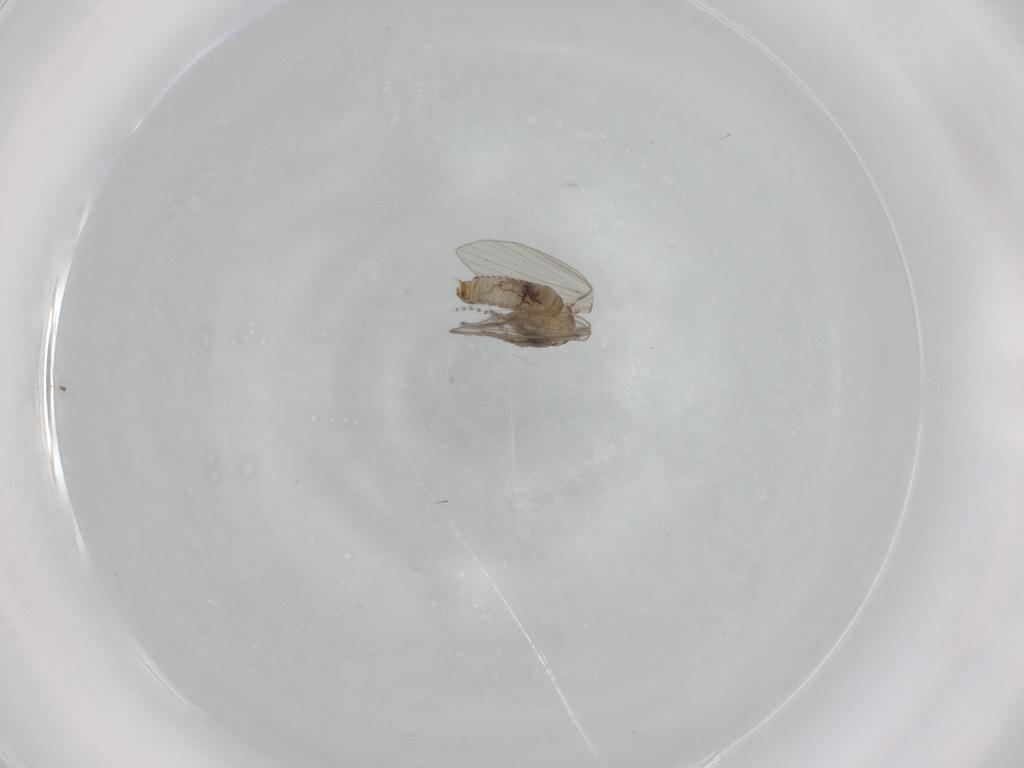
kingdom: Animalia
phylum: Arthropoda
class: Insecta
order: Diptera
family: Psychodidae
